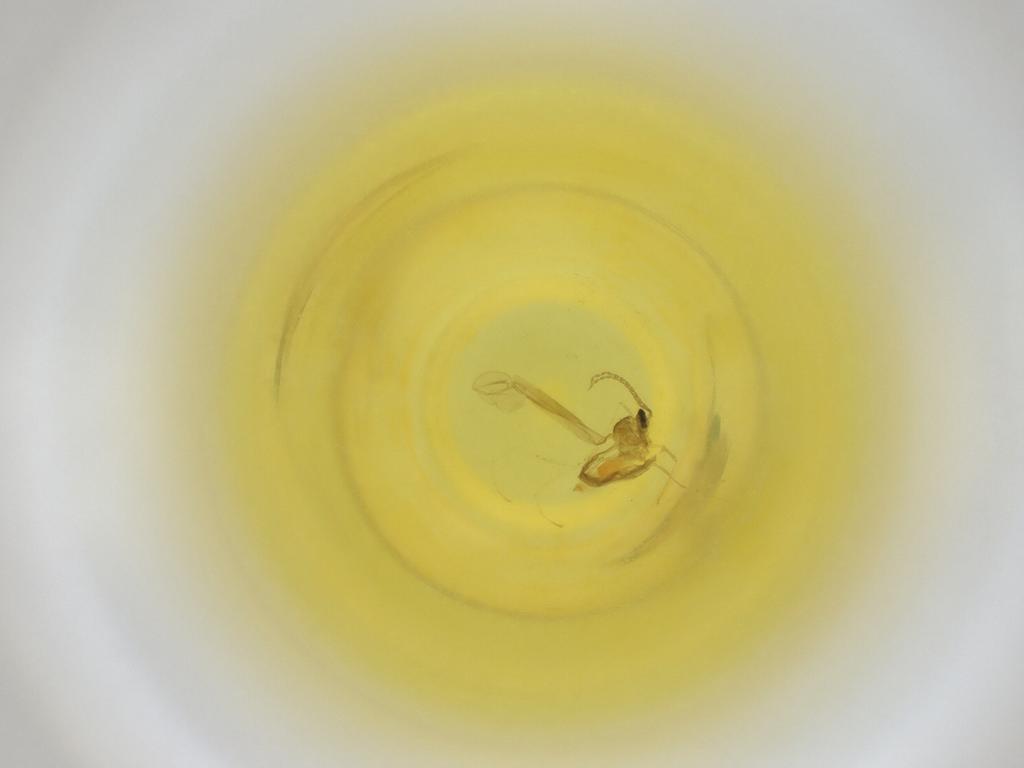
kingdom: Animalia
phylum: Arthropoda
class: Insecta
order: Diptera
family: Cecidomyiidae
